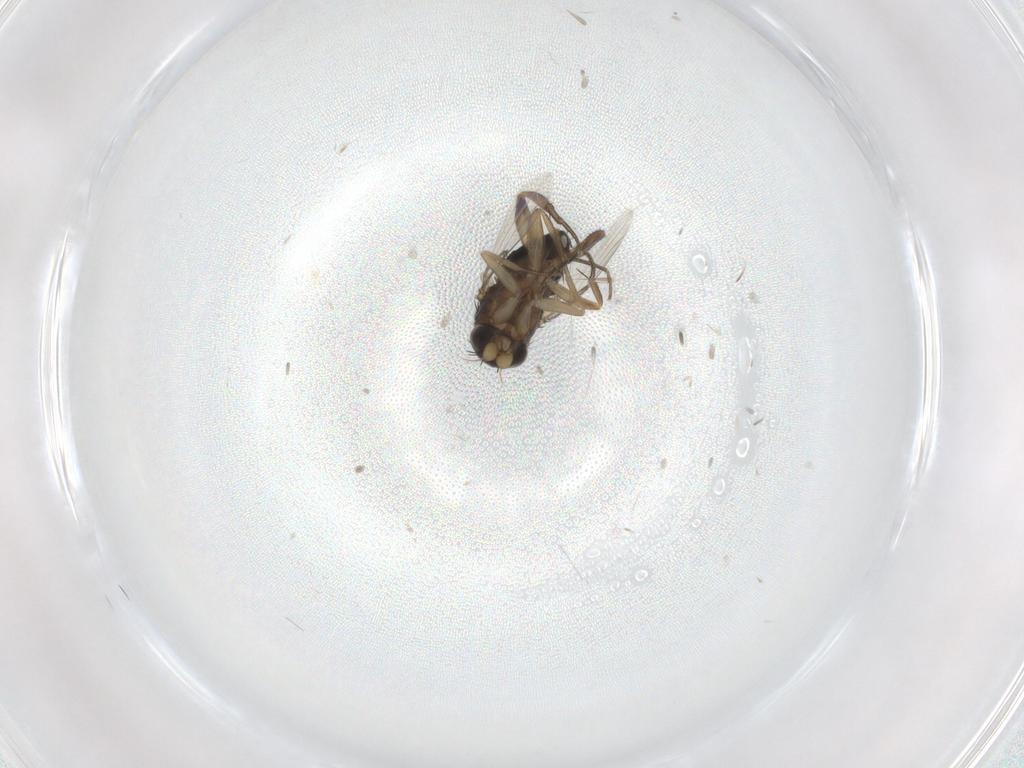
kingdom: Animalia
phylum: Arthropoda
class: Insecta
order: Diptera
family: Phoridae
